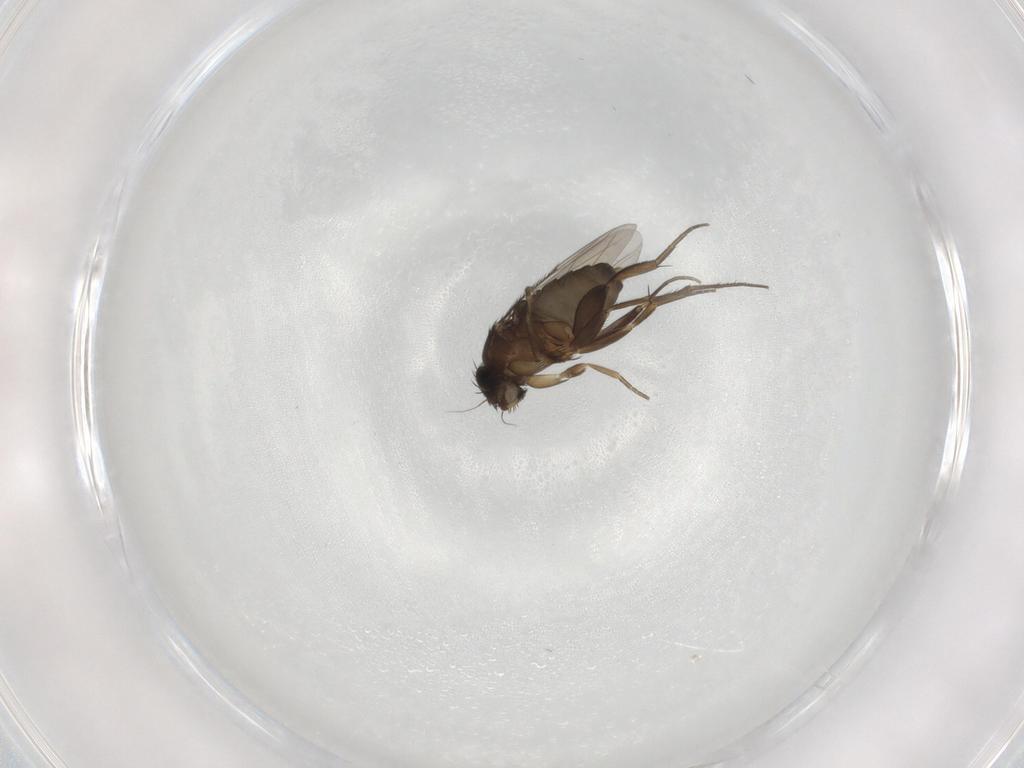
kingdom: Animalia
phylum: Arthropoda
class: Insecta
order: Diptera
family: Phoridae
